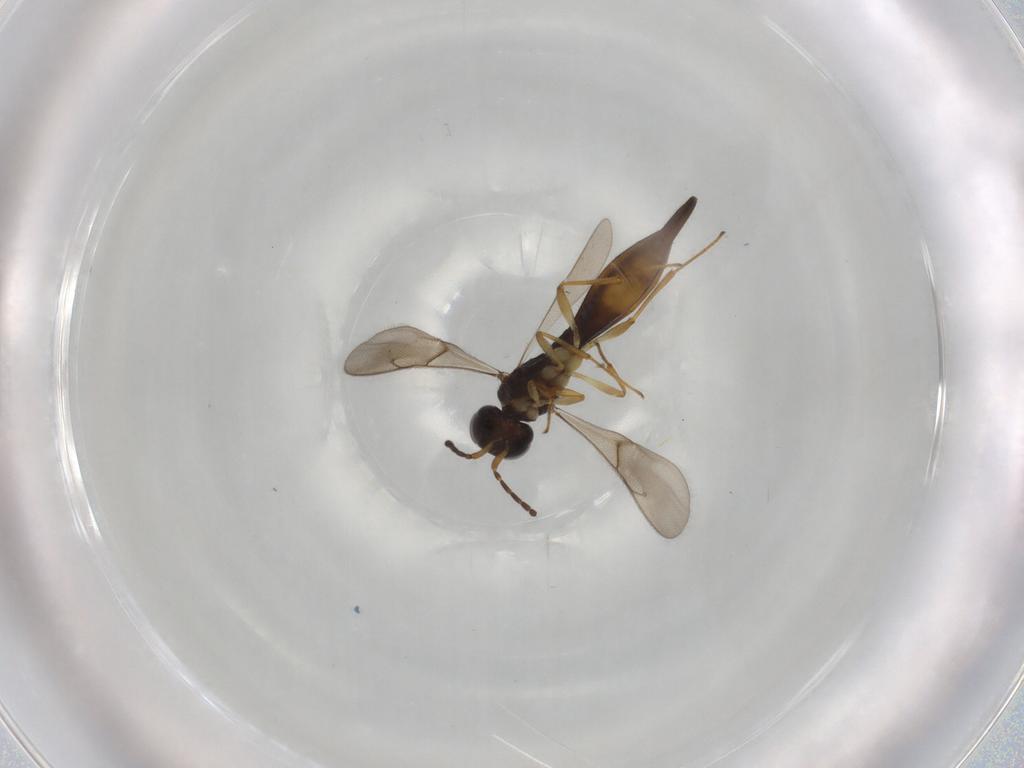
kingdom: Animalia
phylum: Arthropoda
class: Insecta
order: Hymenoptera
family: Scelionidae
